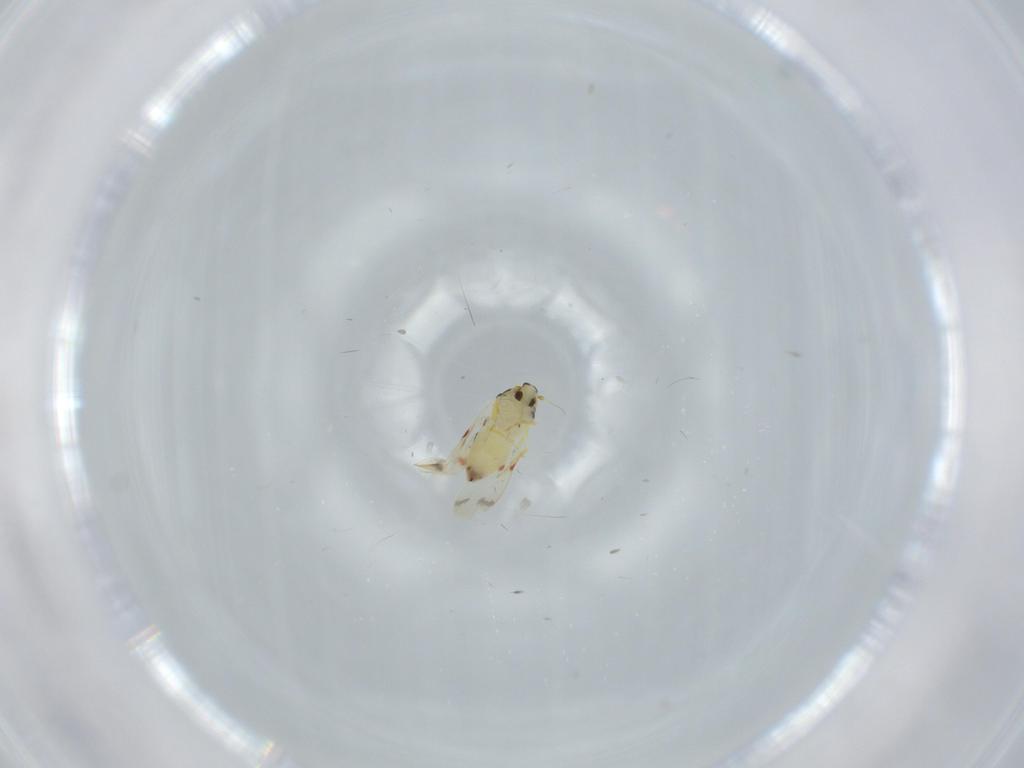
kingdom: Animalia
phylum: Arthropoda
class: Insecta
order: Hemiptera
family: Aleyrodidae
